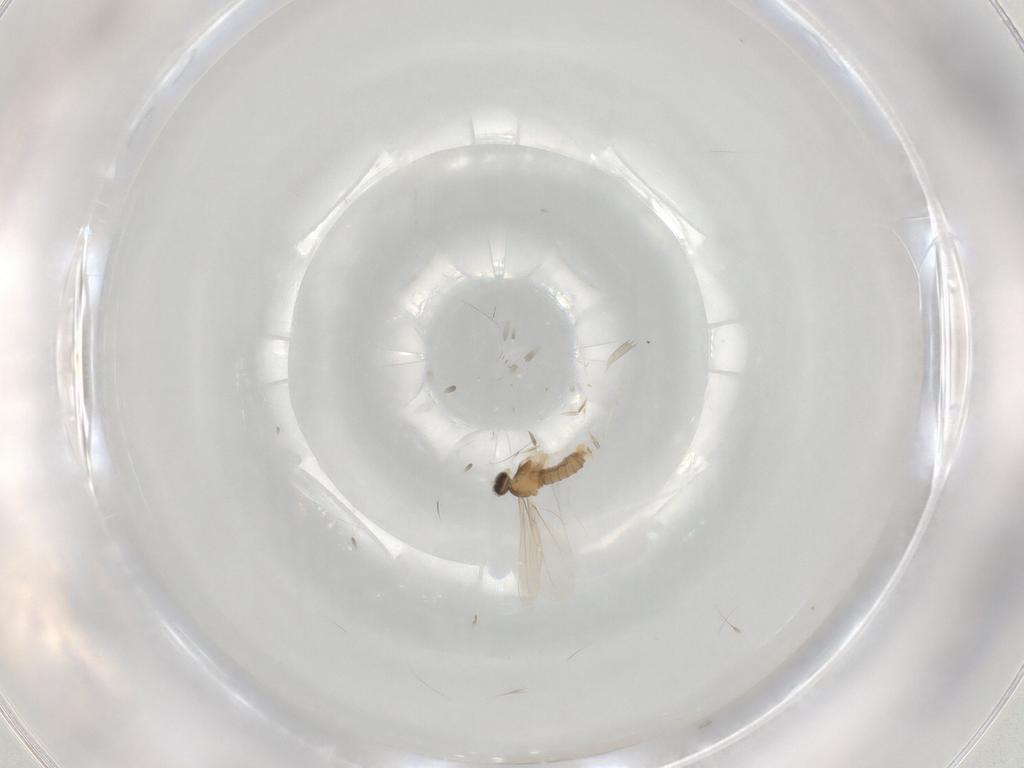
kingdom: Animalia
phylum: Arthropoda
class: Insecta
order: Diptera
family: Cecidomyiidae
